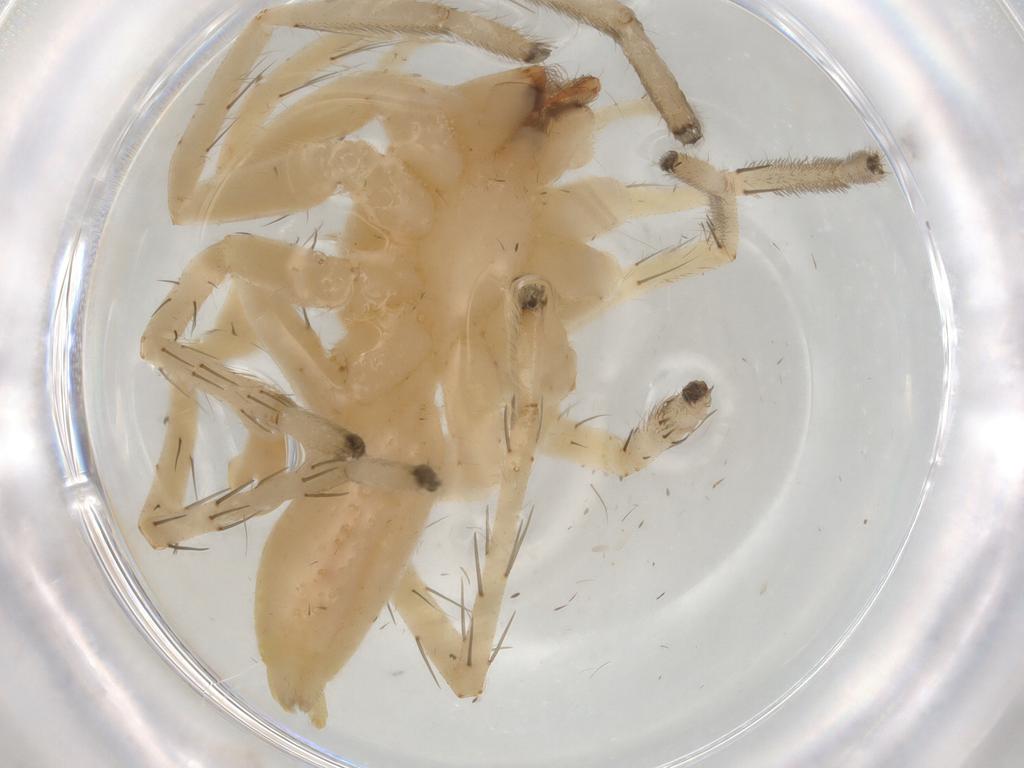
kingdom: Animalia
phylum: Arthropoda
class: Arachnida
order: Araneae
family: Anyphaenidae
